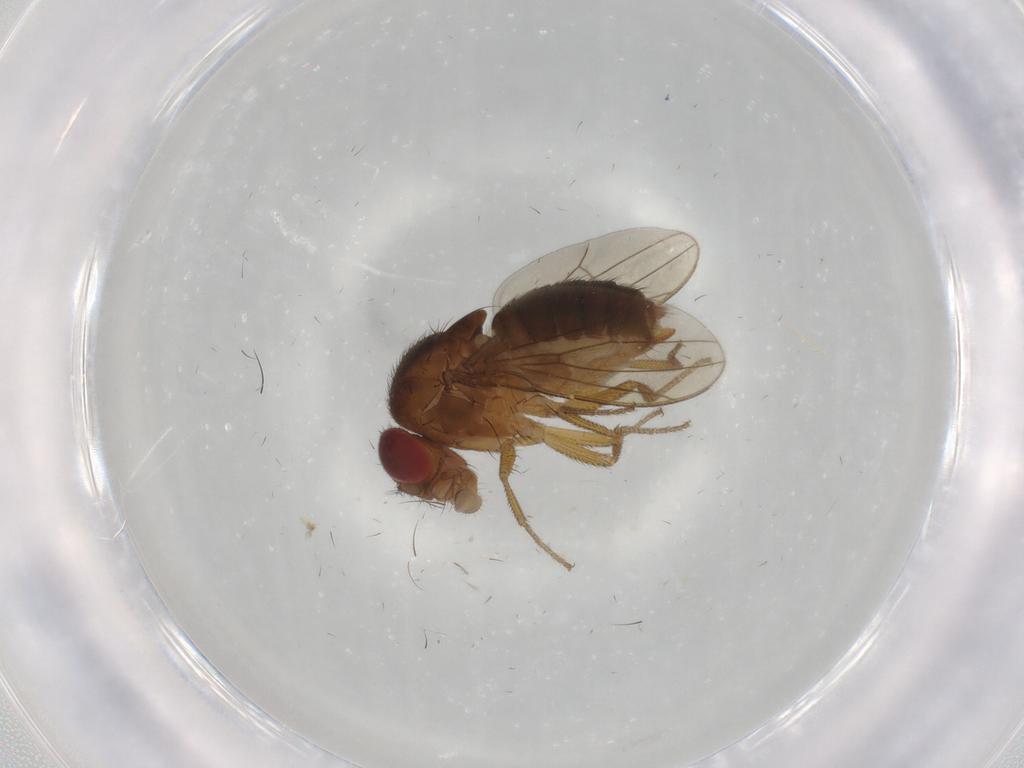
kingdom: Animalia
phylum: Arthropoda
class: Insecta
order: Diptera
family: Drosophilidae
